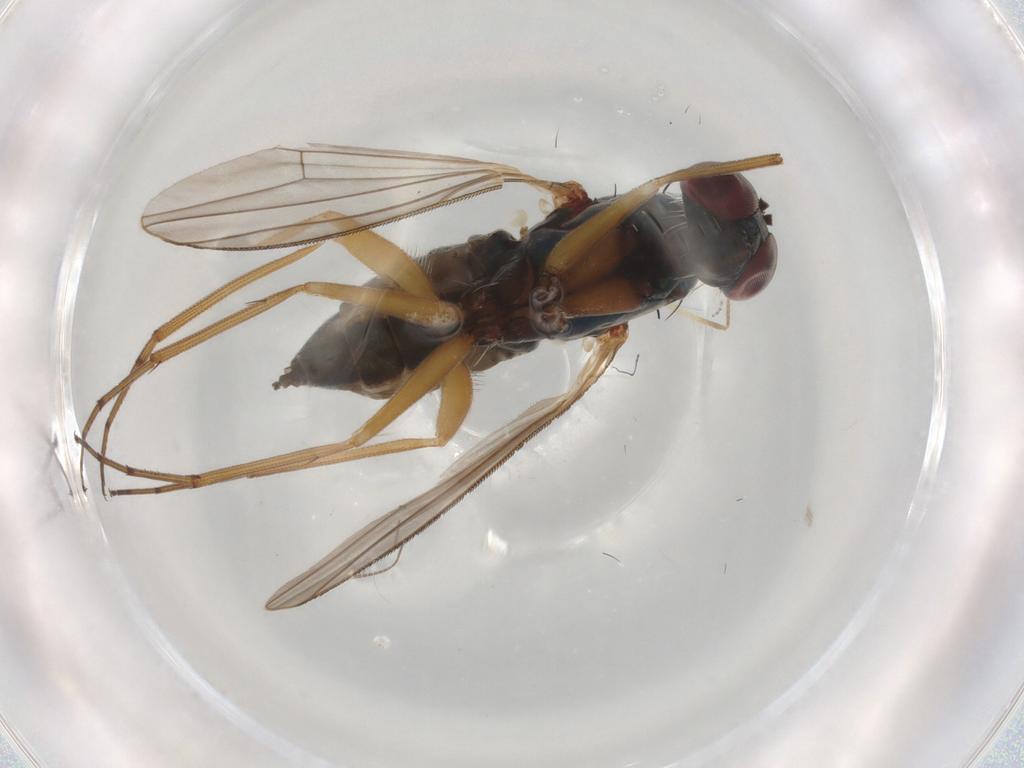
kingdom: Animalia
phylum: Arthropoda
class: Insecta
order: Diptera
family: Chironomidae
